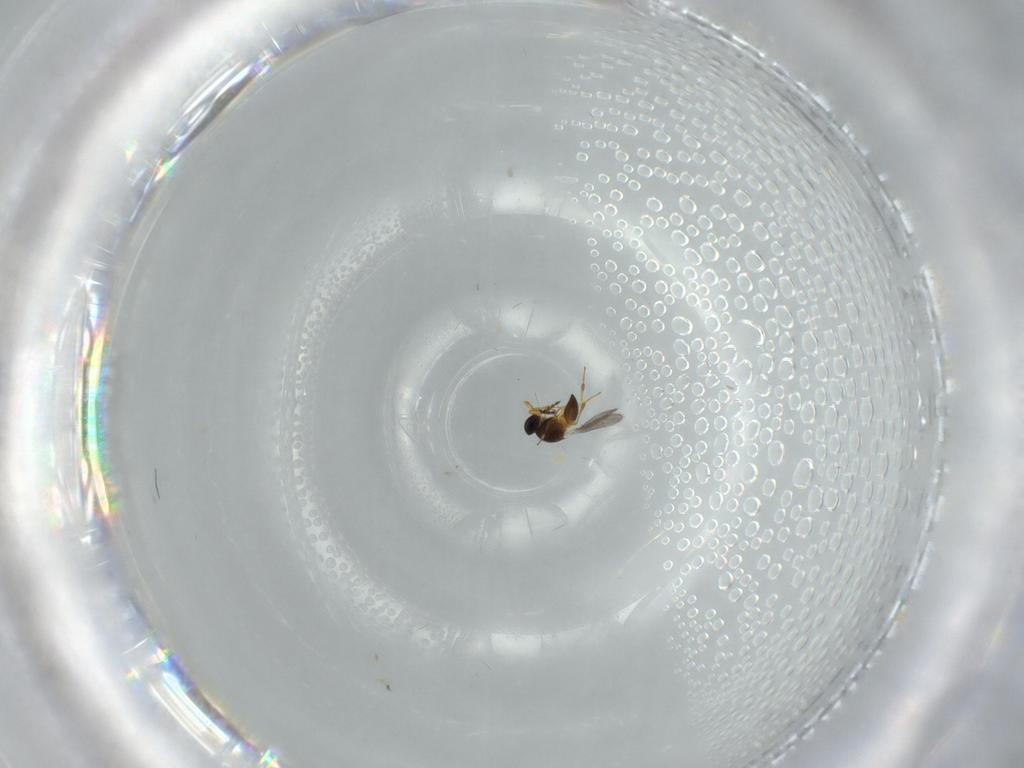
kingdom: Animalia
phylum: Arthropoda
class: Insecta
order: Hymenoptera
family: Platygastridae
